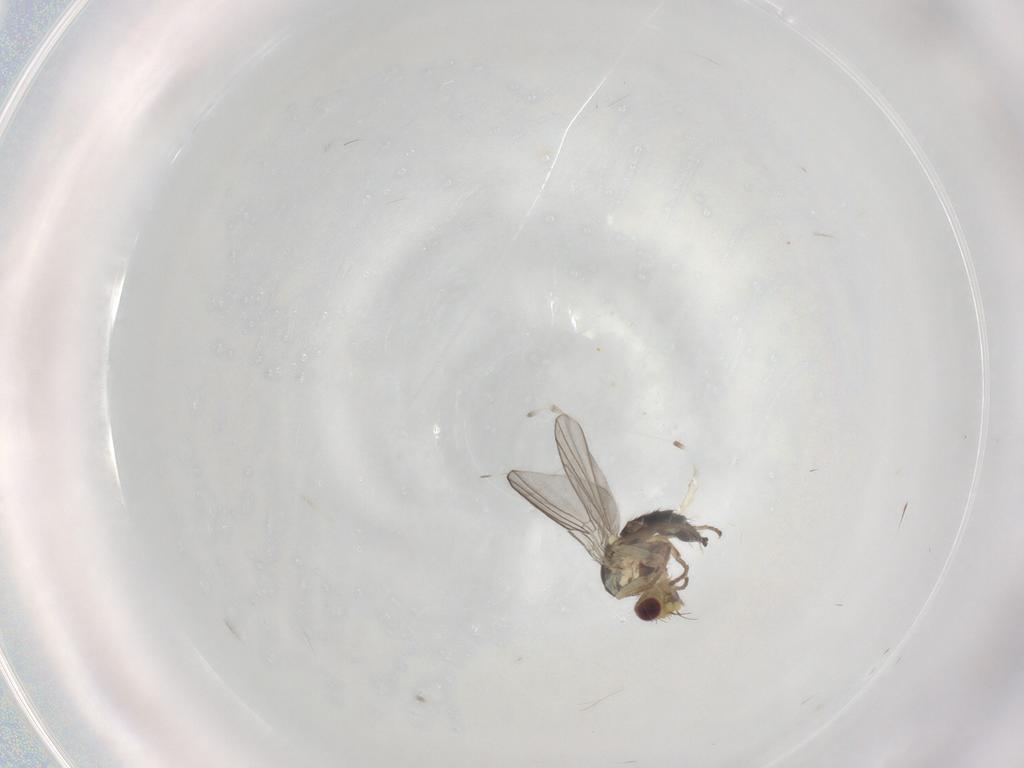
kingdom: Animalia
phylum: Arthropoda
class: Insecta
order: Diptera
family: Agromyzidae
